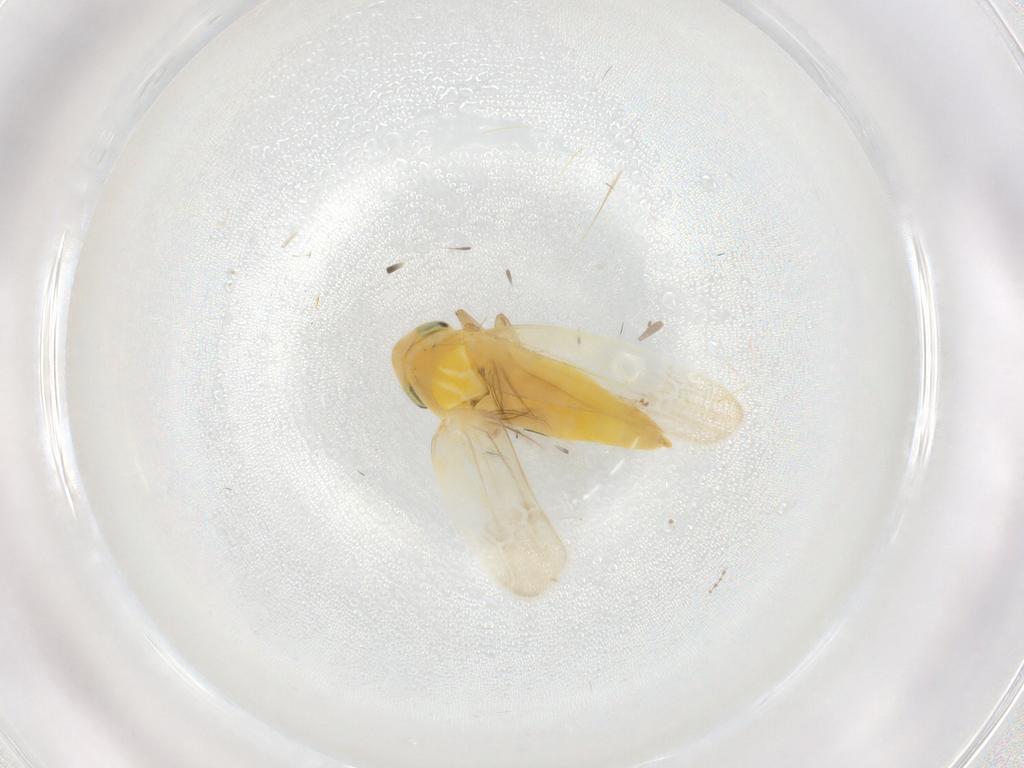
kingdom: Animalia
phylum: Arthropoda
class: Insecta
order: Hemiptera
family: Cicadellidae
